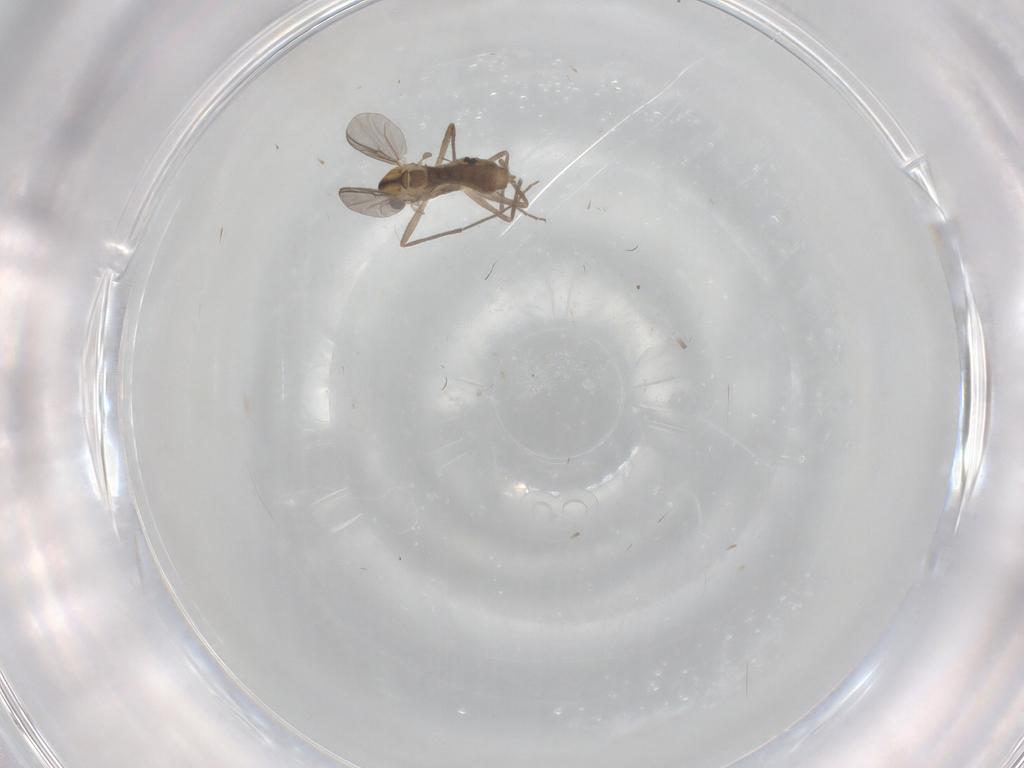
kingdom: Animalia
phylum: Arthropoda
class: Insecta
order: Diptera
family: Chironomidae
